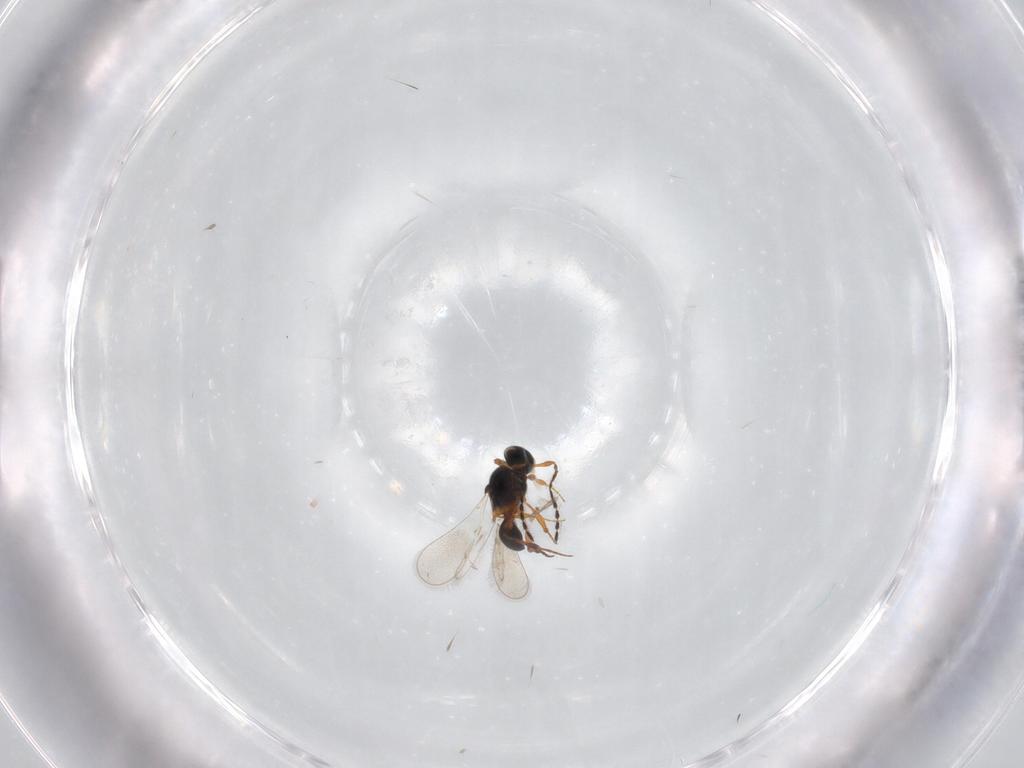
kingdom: Animalia
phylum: Arthropoda
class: Insecta
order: Hymenoptera
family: Platygastridae
